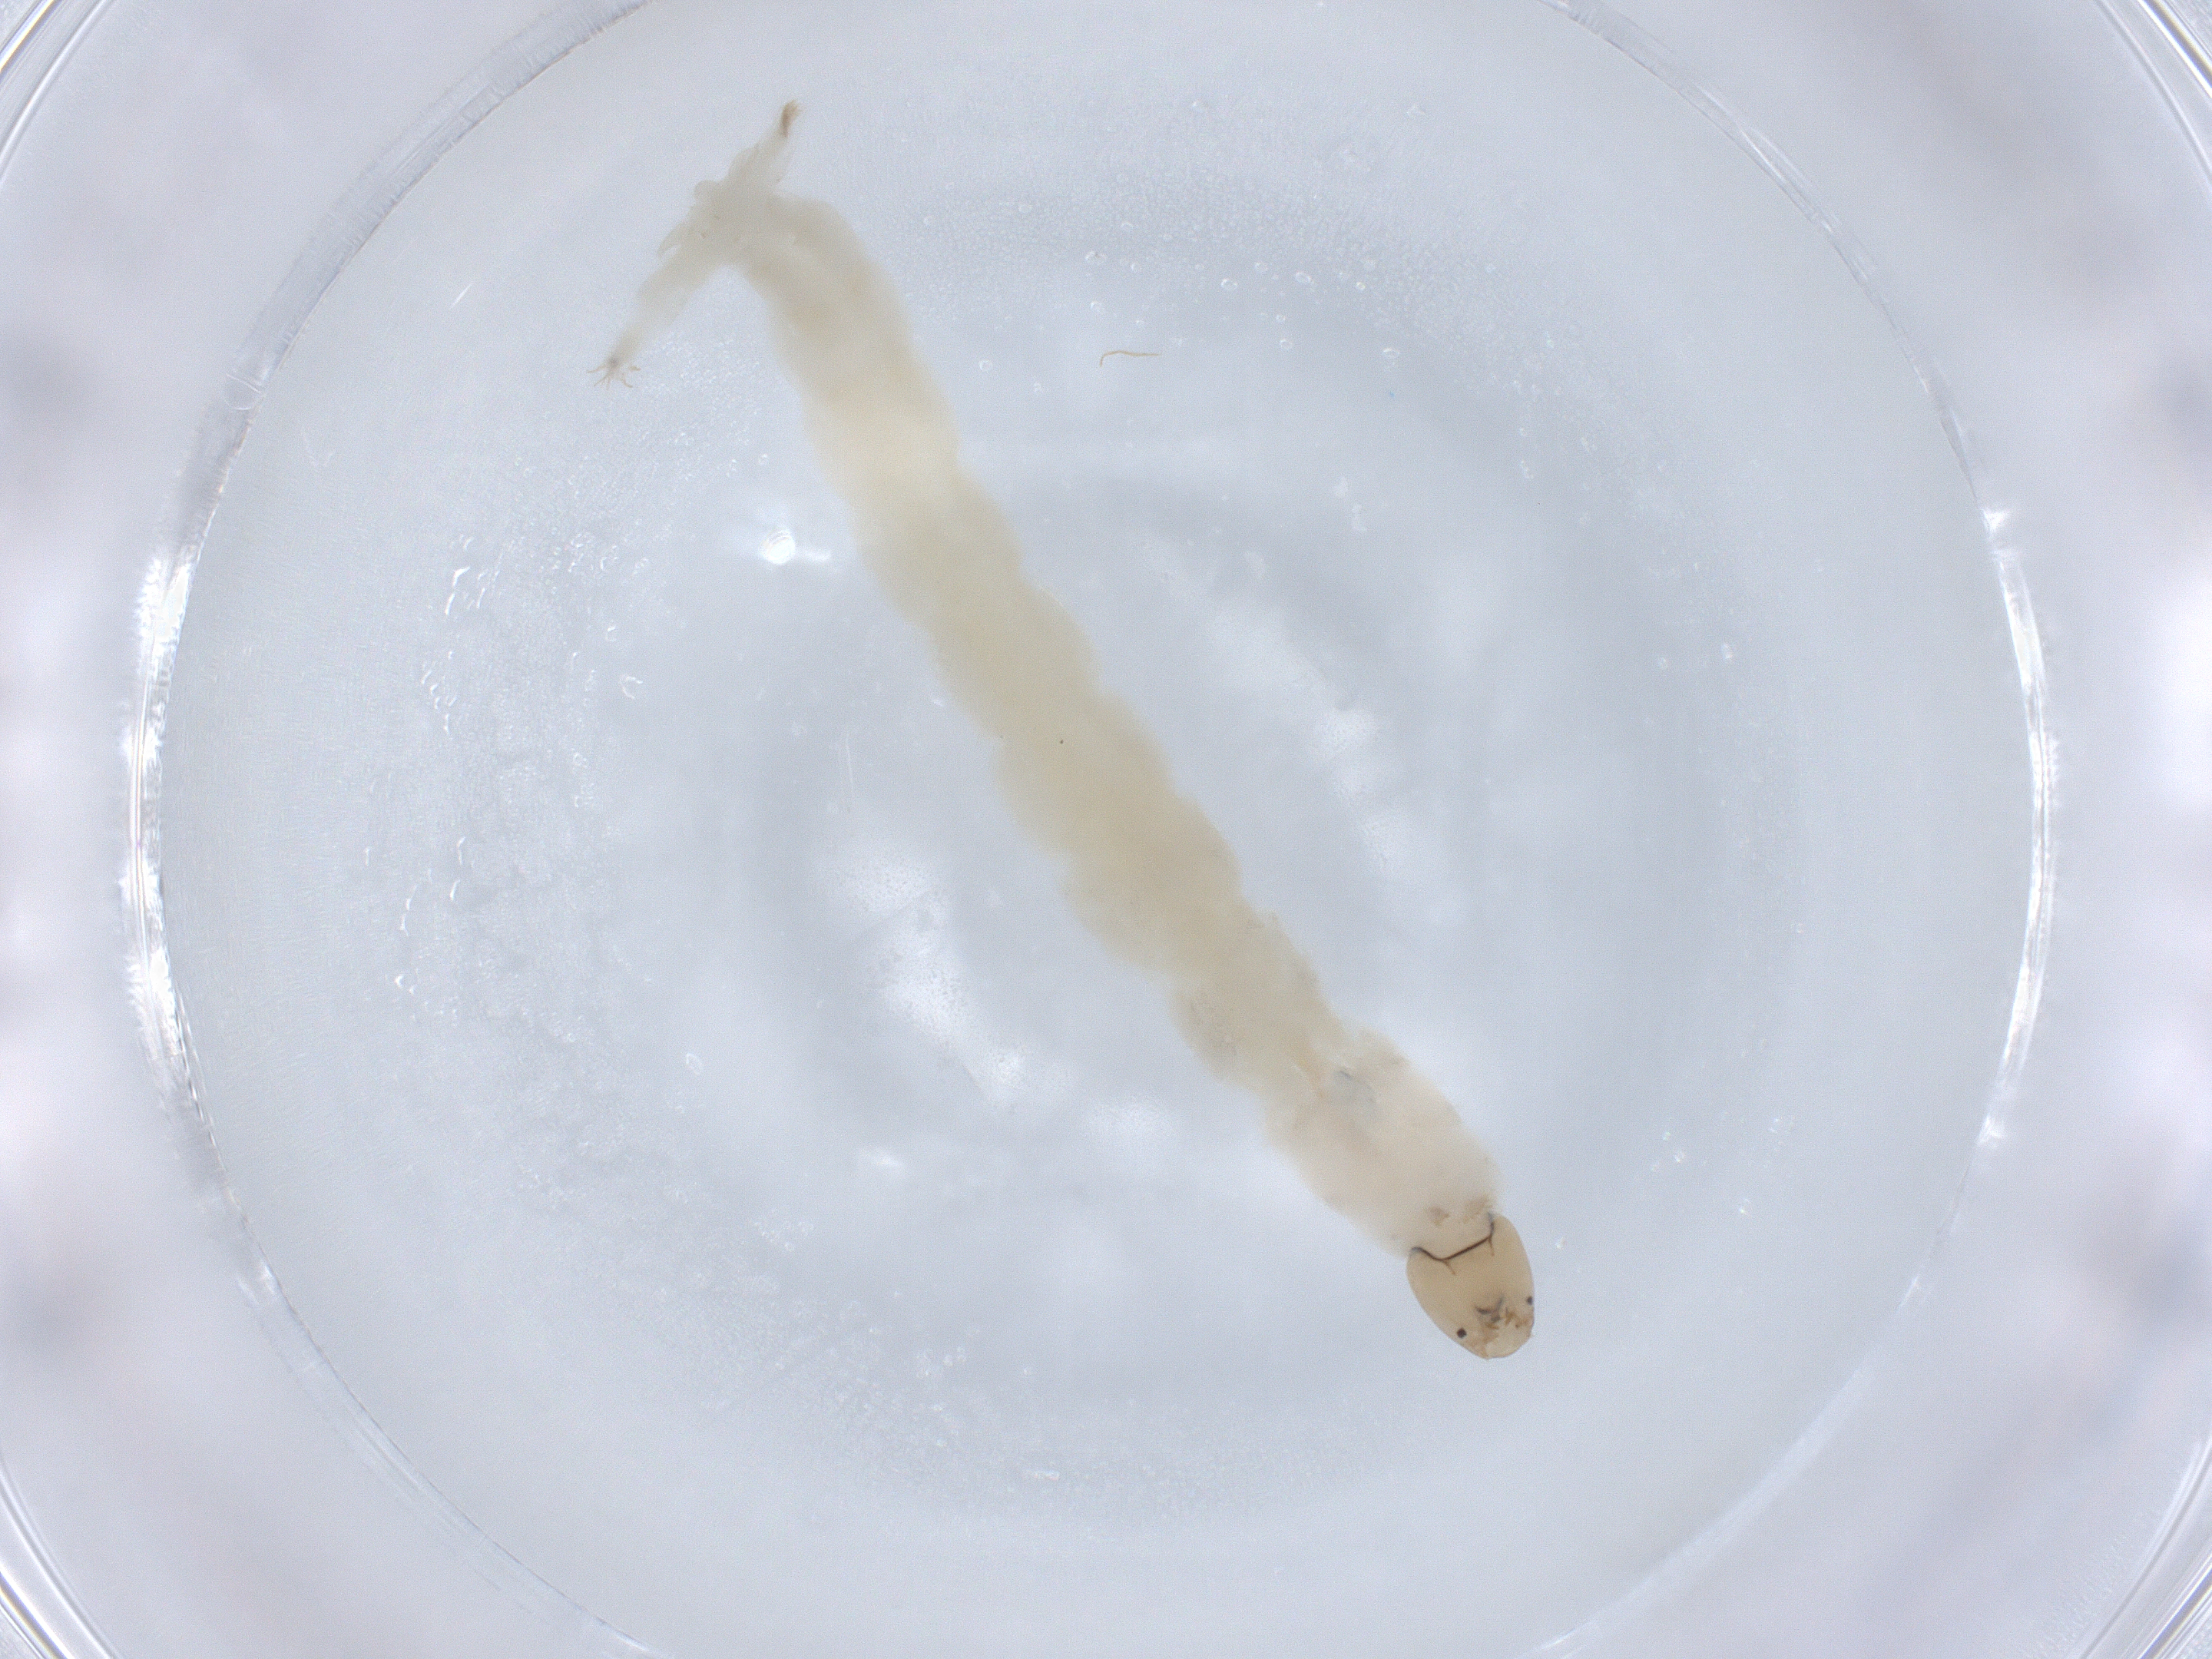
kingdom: Animalia
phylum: Arthropoda
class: Insecta
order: Diptera
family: Chironomidae
